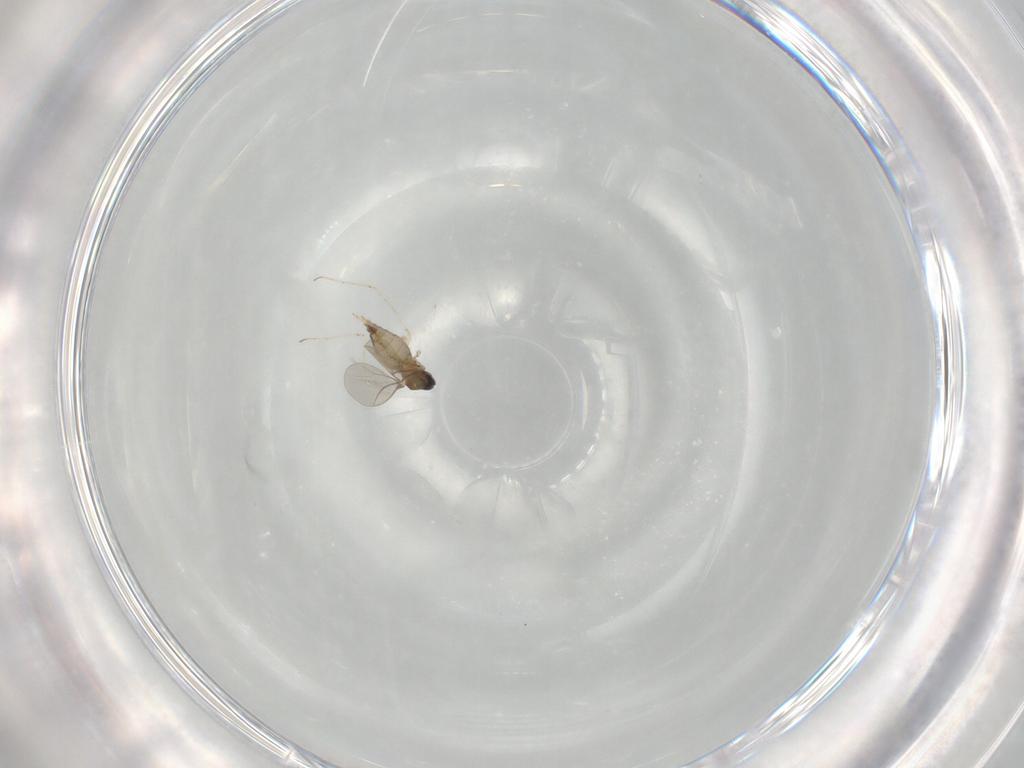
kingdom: Animalia
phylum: Arthropoda
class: Insecta
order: Diptera
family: Cecidomyiidae
